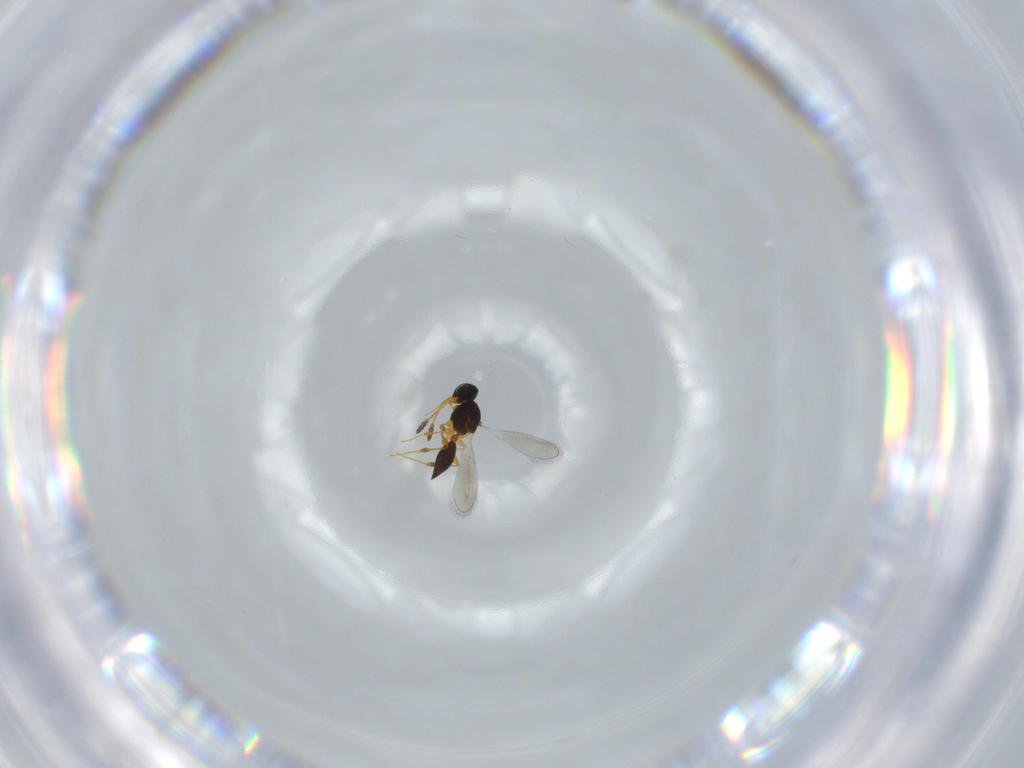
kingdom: Animalia
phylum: Arthropoda
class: Insecta
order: Hymenoptera
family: Platygastridae
